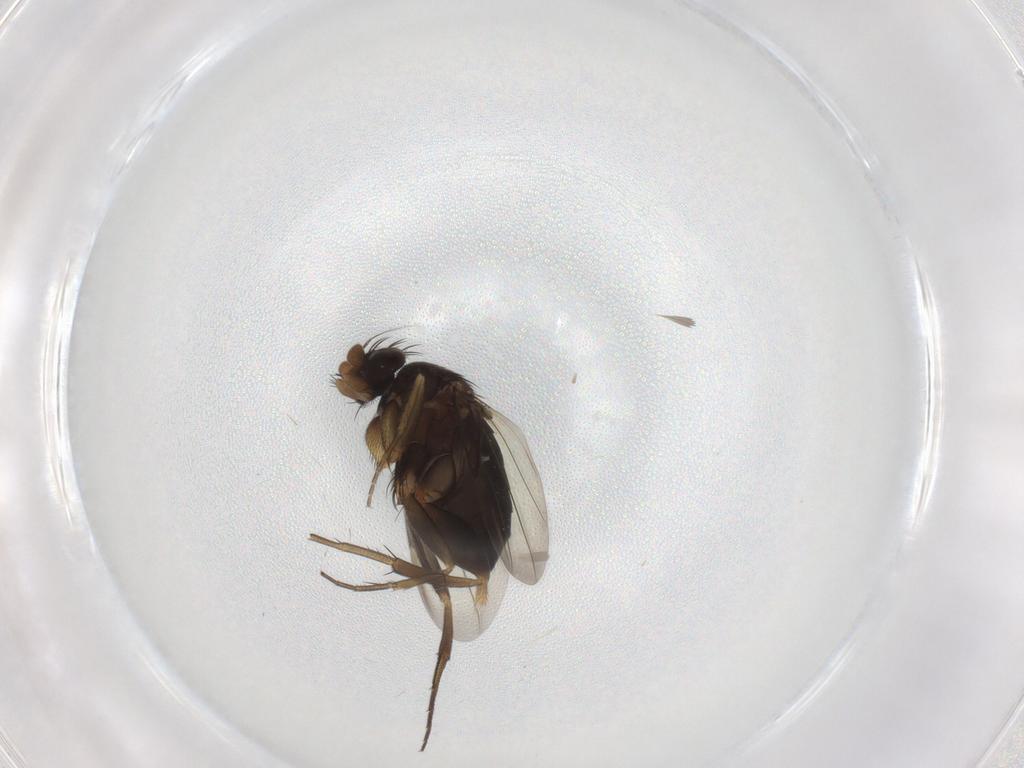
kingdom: Animalia
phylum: Arthropoda
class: Insecta
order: Diptera
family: Phoridae
